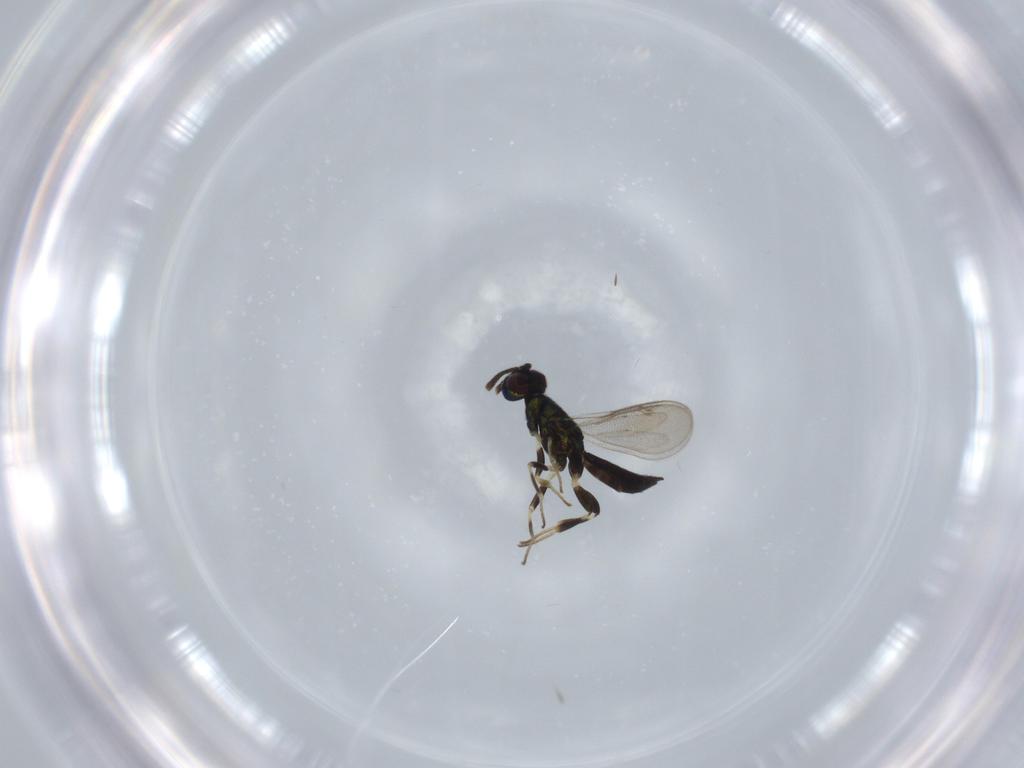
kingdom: Animalia
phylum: Arthropoda
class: Insecta
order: Hymenoptera
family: Eupelmidae
